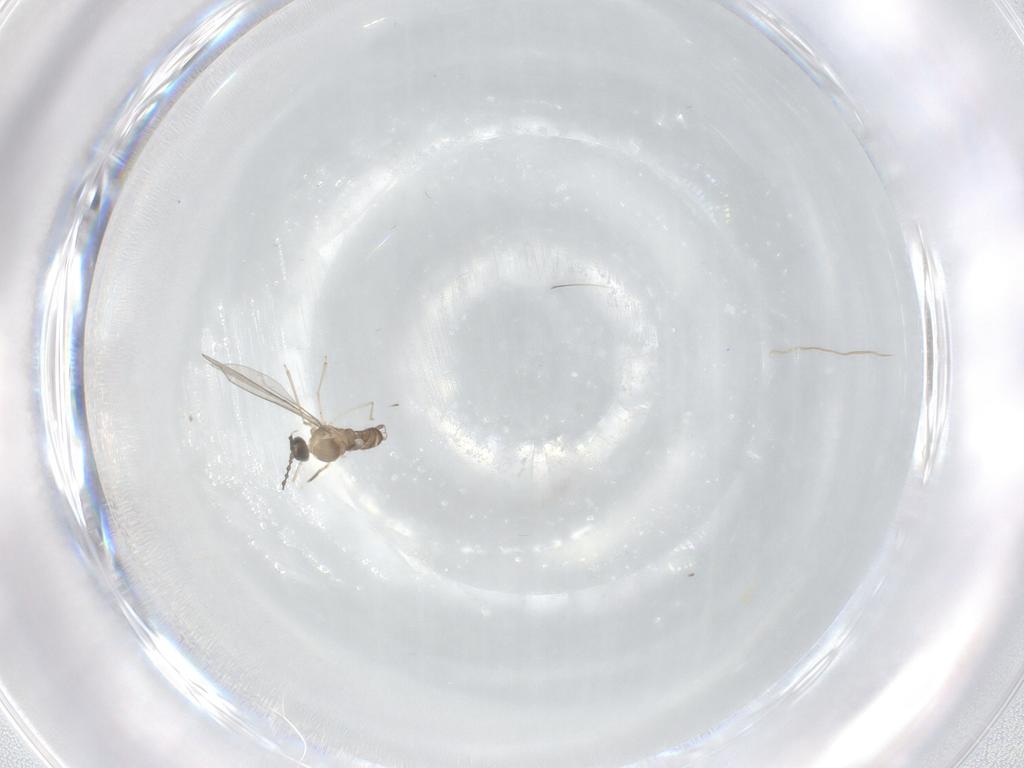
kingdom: Animalia
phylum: Arthropoda
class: Insecta
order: Diptera
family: Cecidomyiidae
